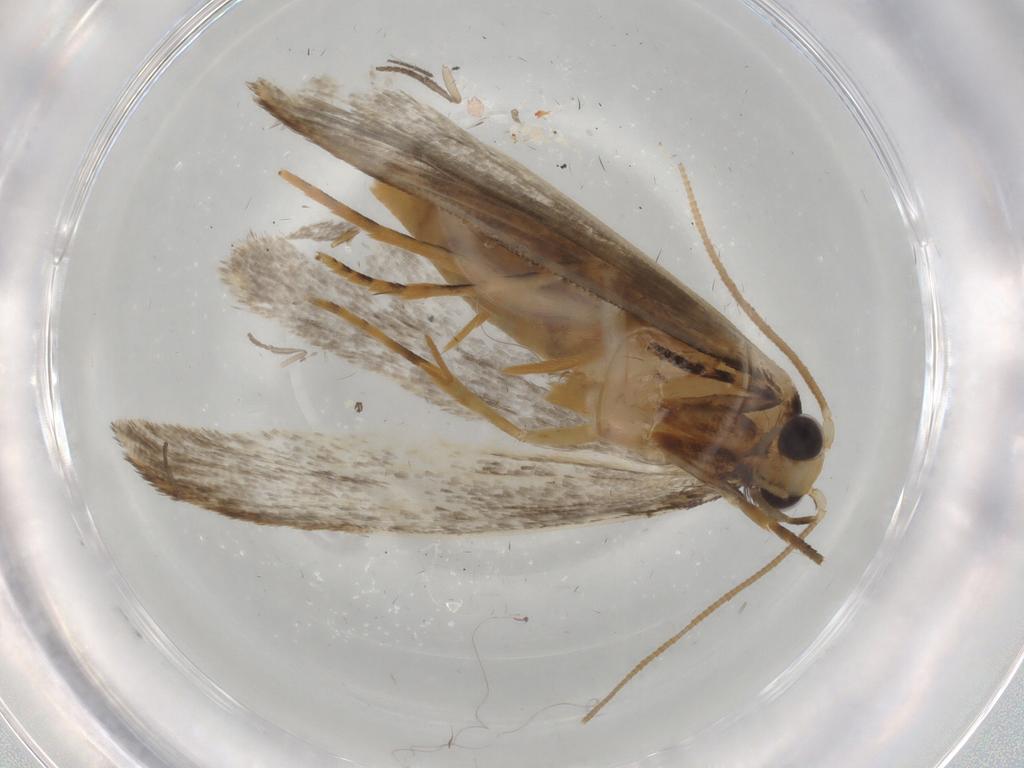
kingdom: Animalia
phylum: Arthropoda
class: Insecta
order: Lepidoptera
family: Tineidae
